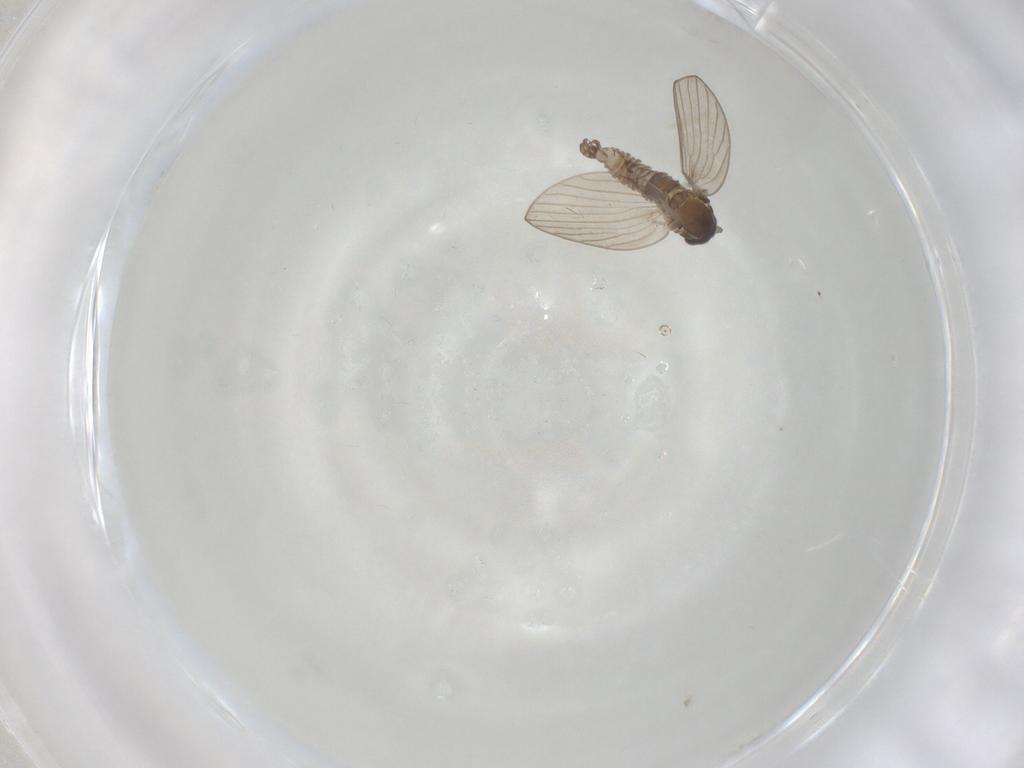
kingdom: Animalia
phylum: Arthropoda
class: Insecta
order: Diptera
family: Psychodidae
